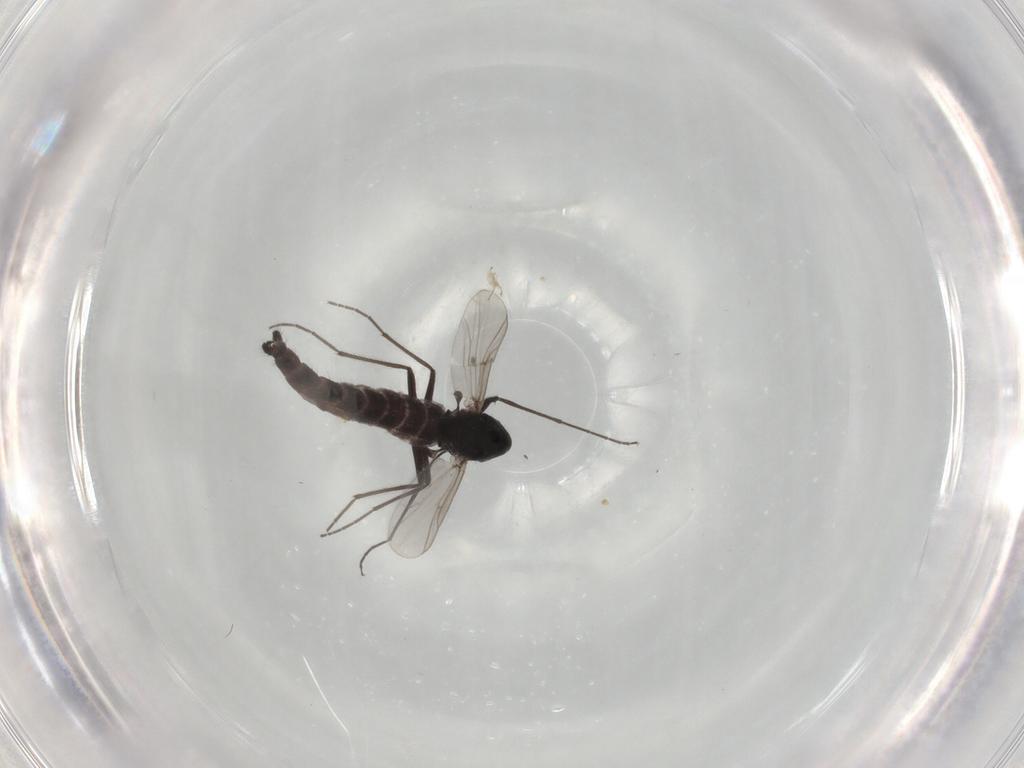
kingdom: Animalia
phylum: Arthropoda
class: Insecta
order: Diptera
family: Chironomidae
